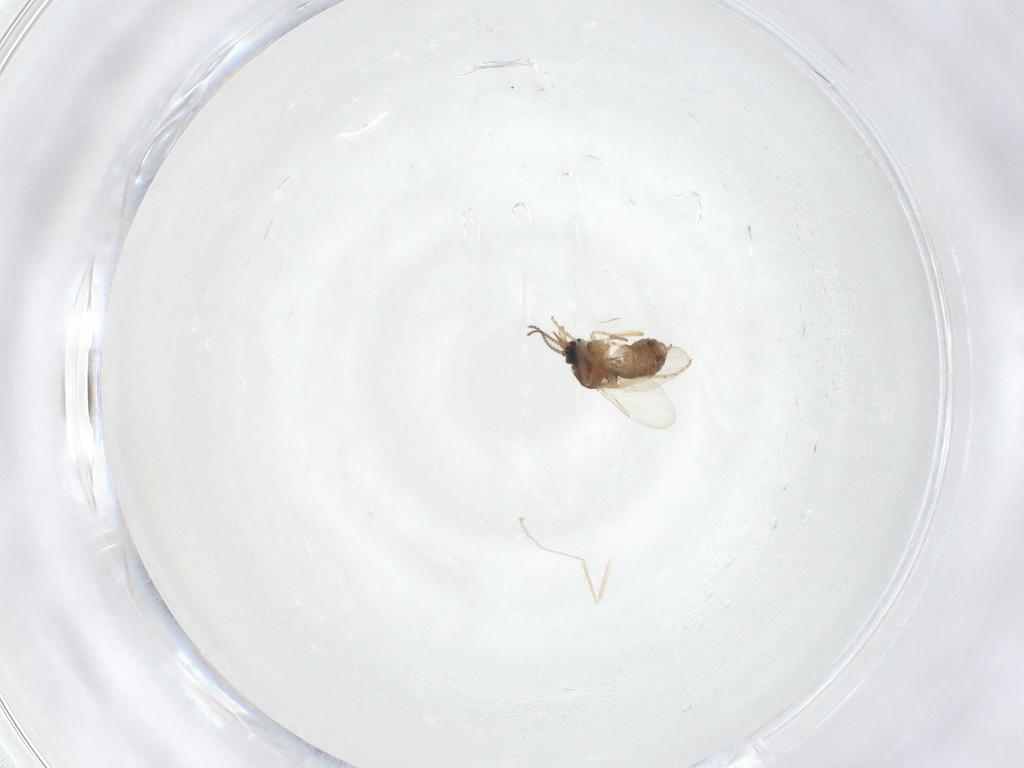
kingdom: Animalia
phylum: Arthropoda
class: Insecta
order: Diptera
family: Ceratopogonidae
